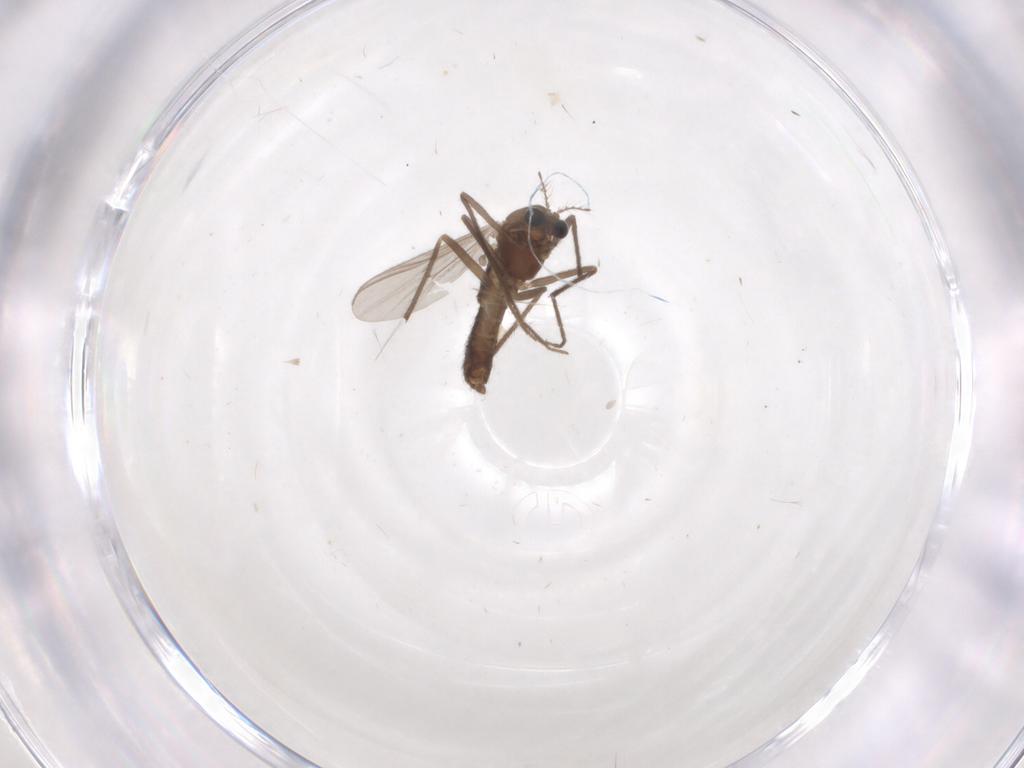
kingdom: Animalia
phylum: Arthropoda
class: Insecta
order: Diptera
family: Chironomidae
